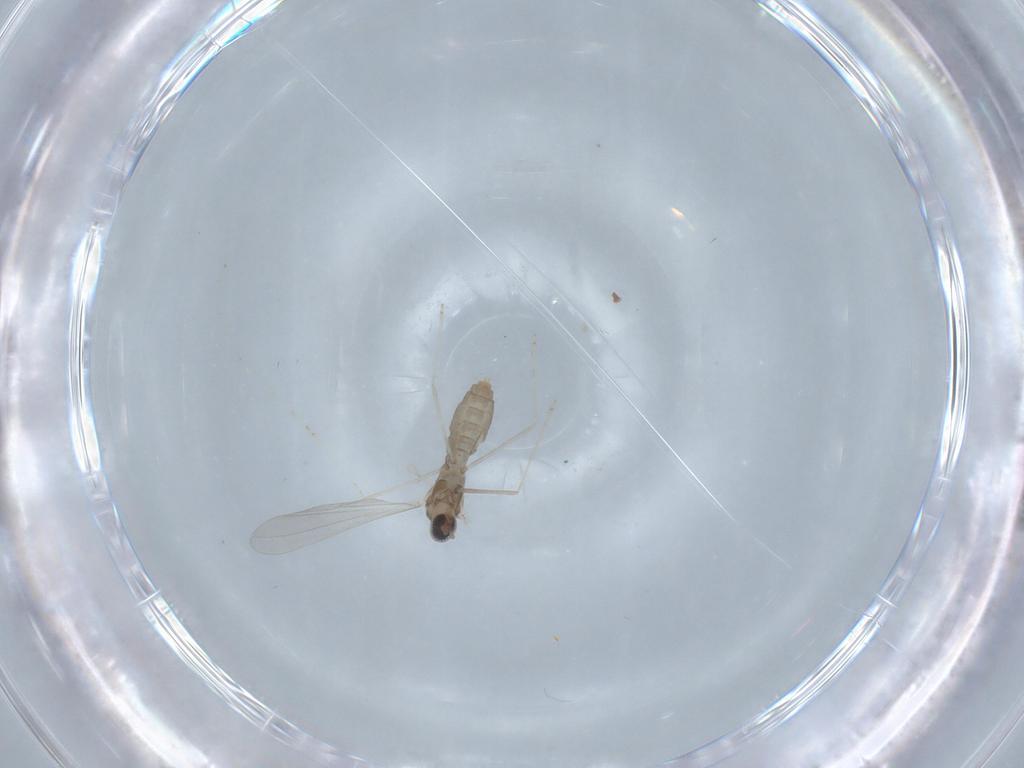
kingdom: Animalia
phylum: Arthropoda
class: Insecta
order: Diptera
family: Cecidomyiidae
